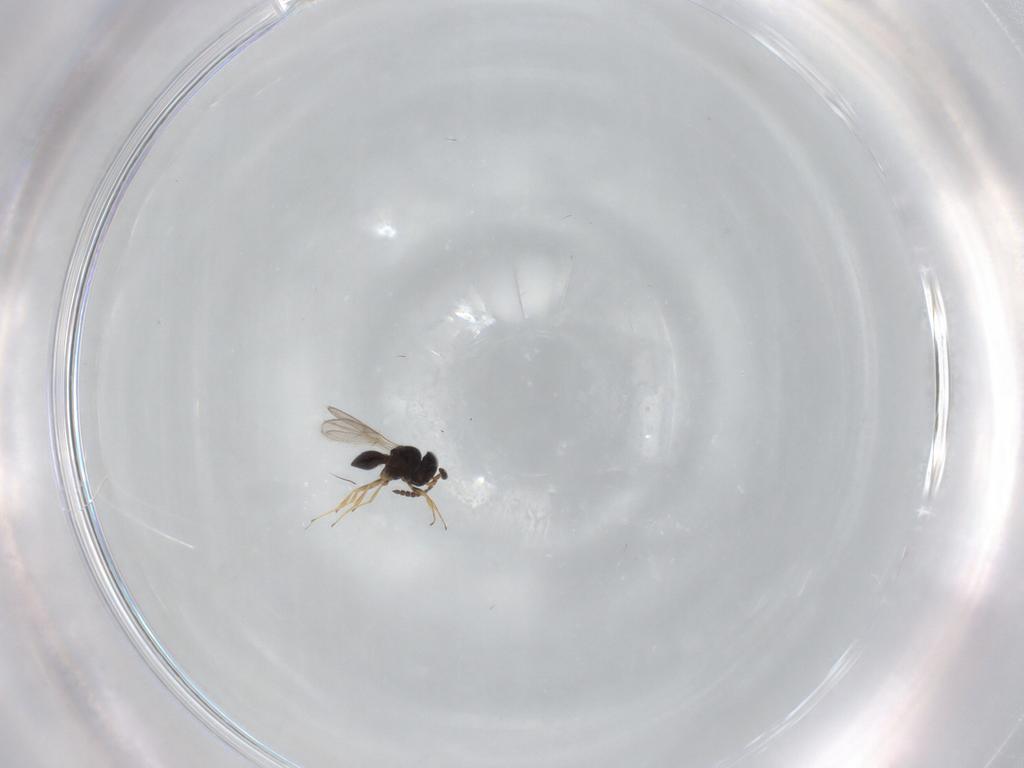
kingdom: Animalia
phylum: Arthropoda
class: Insecta
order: Hymenoptera
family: Scelionidae
